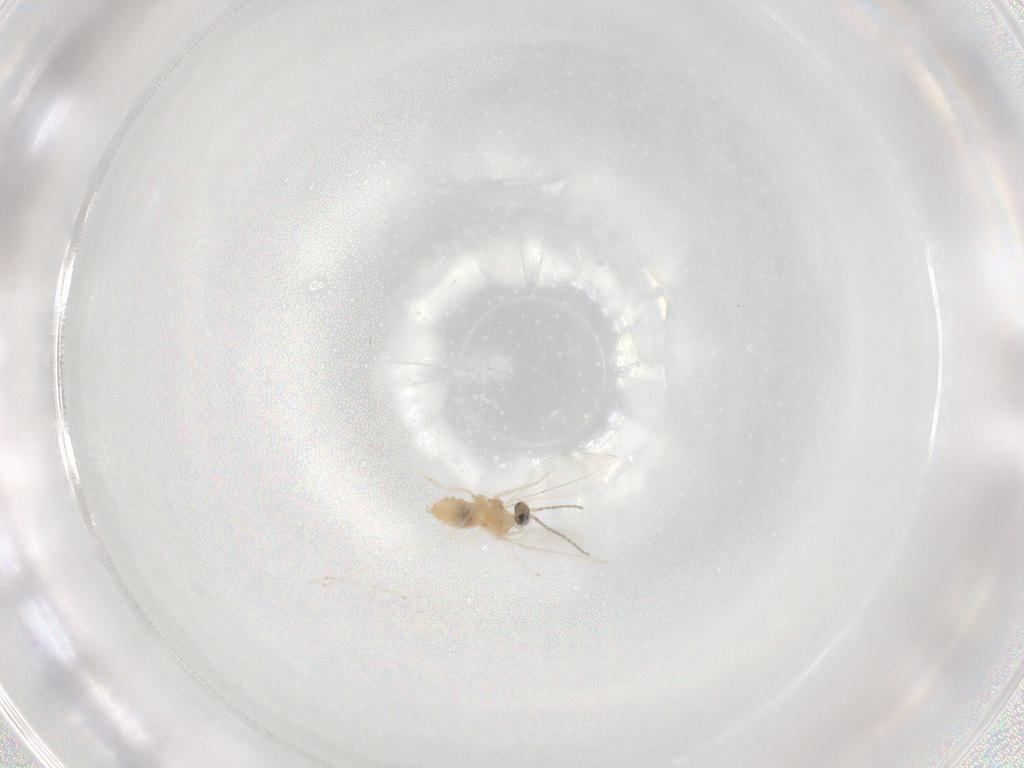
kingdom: Animalia
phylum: Arthropoda
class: Insecta
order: Diptera
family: Cecidomyiidae
